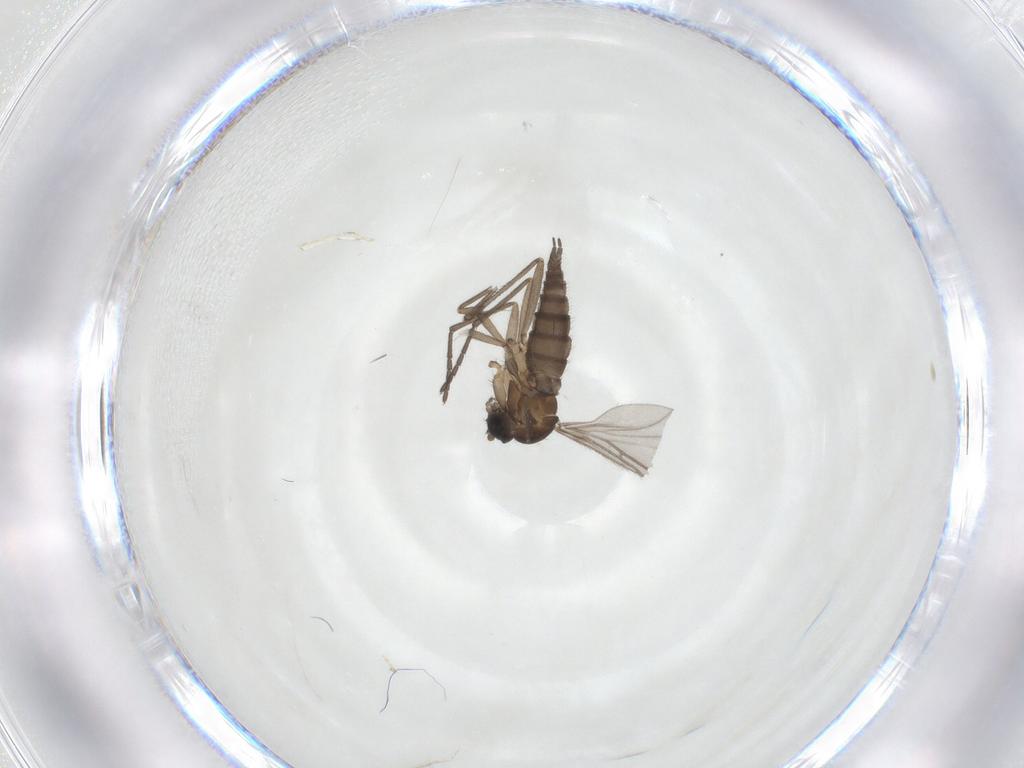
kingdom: Animalia
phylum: Arthropoda
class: Insecta
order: Diptera
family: Sciaridae
